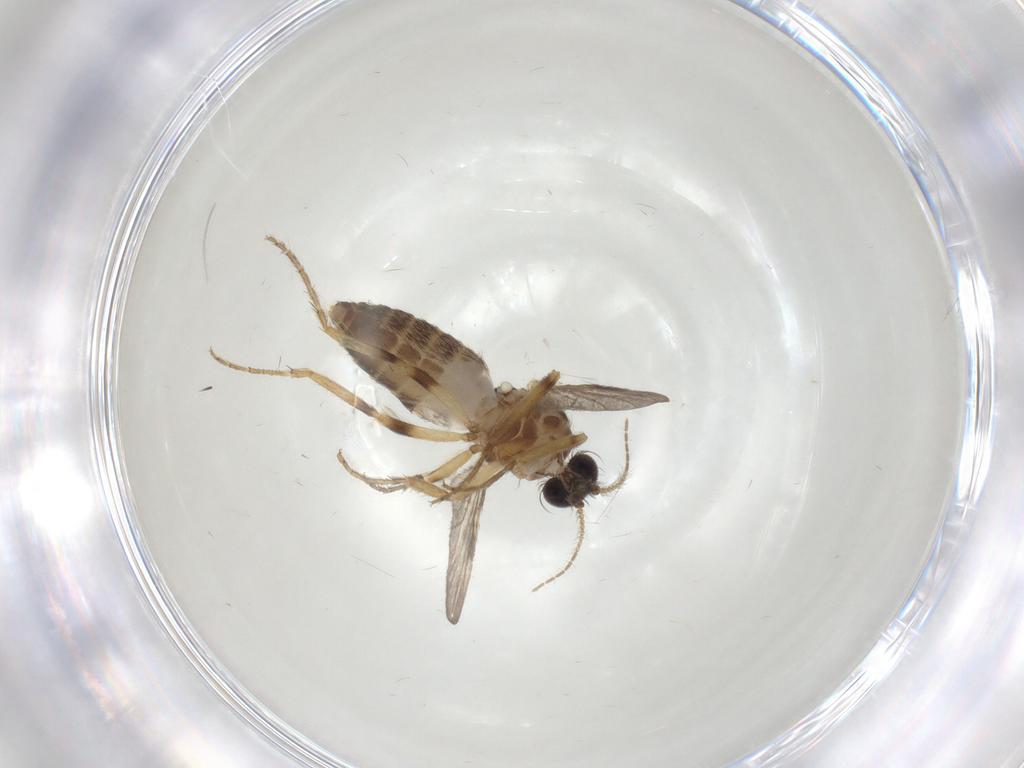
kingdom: Animalia
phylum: Arthropoda
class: Insecta
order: Diptera
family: Ceratopogonidae
